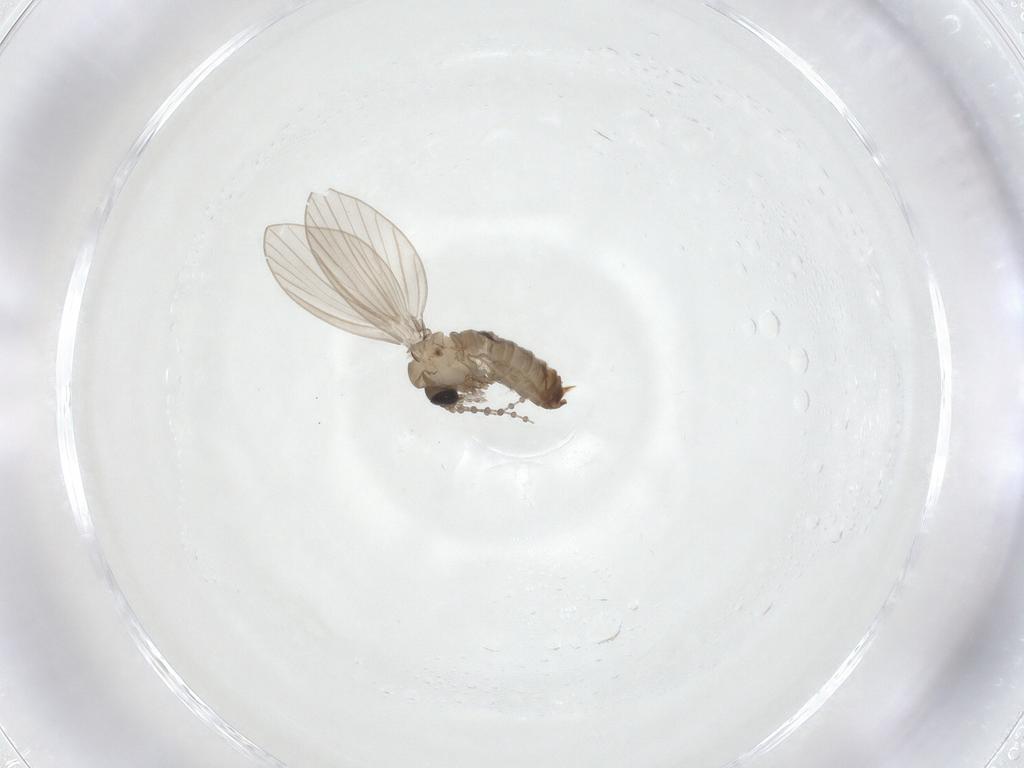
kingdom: Animalia
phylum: Arthropoda
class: Insecta
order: Diptera
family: Psychodidae
